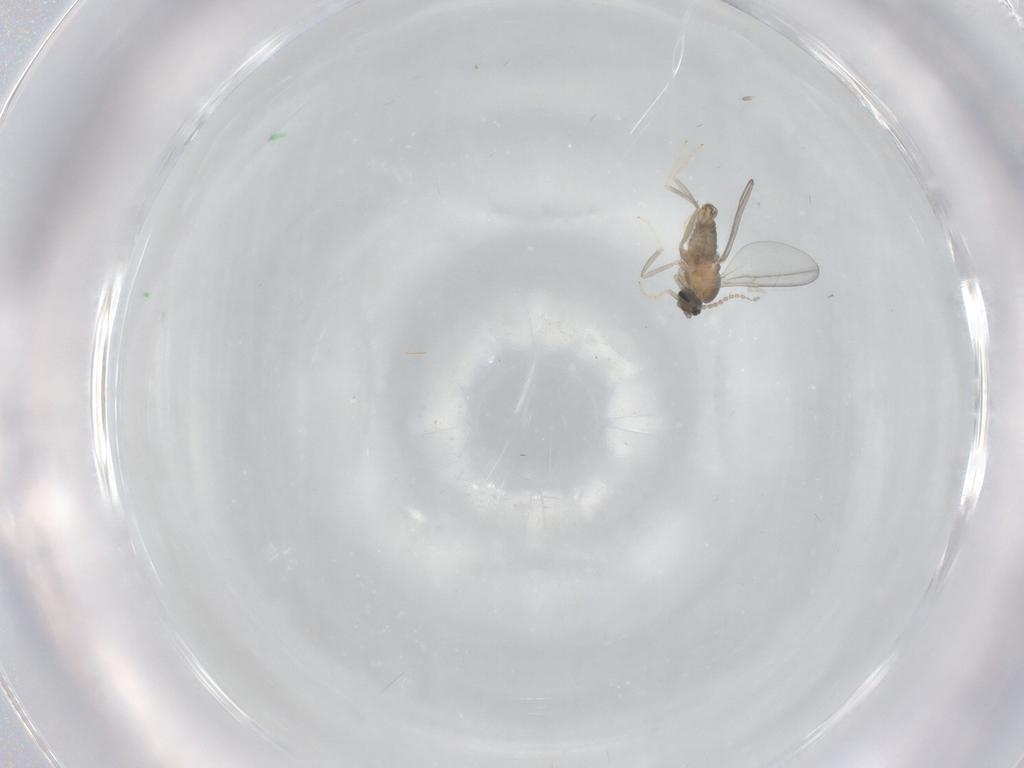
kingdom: Animalia
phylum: Arthropoda
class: Insecta
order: Diptera
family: Cecidomyiidae
